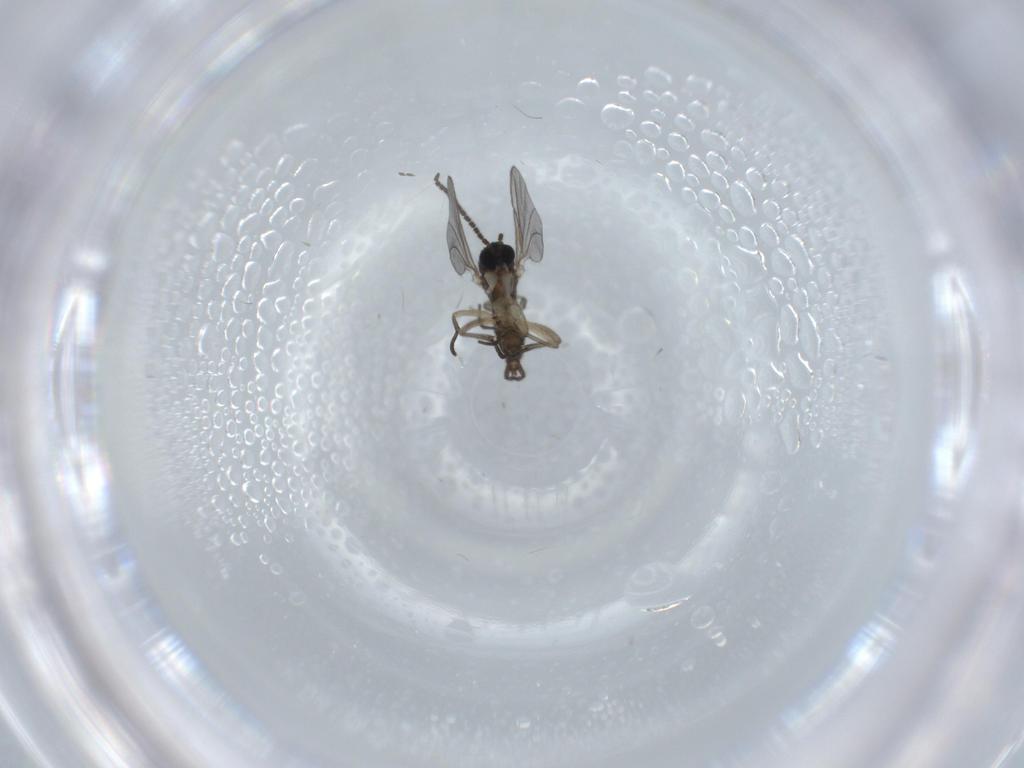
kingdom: Animalia
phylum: Arthropoda
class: Insecta
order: Diptera
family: Sciaridae
